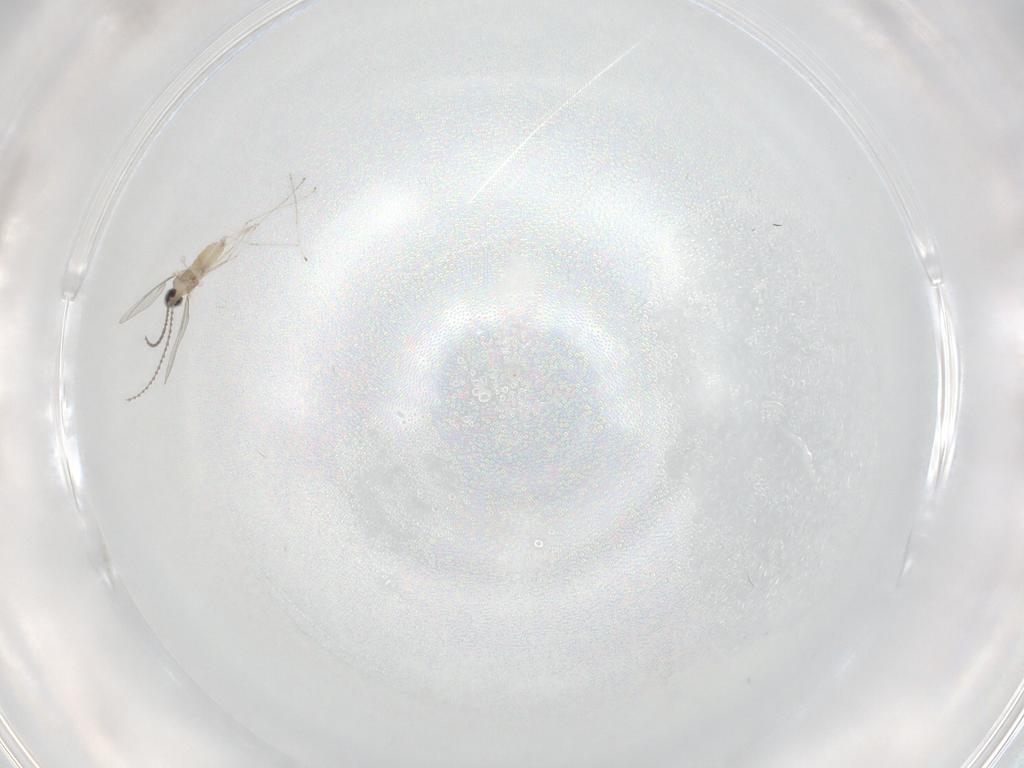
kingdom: Animalia
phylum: Arthropoda
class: Insecta
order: Diptera
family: Cecidomyiidae
